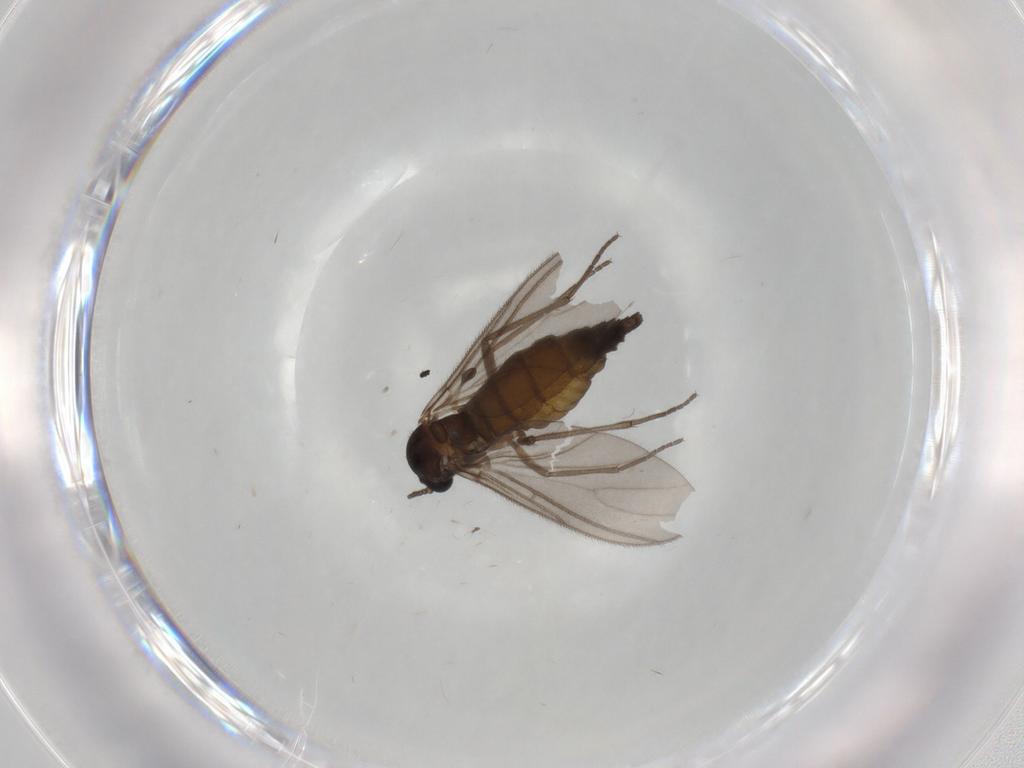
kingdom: Animalia
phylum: Arthropoda
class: Insecta
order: Diptera
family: Sciaridae
